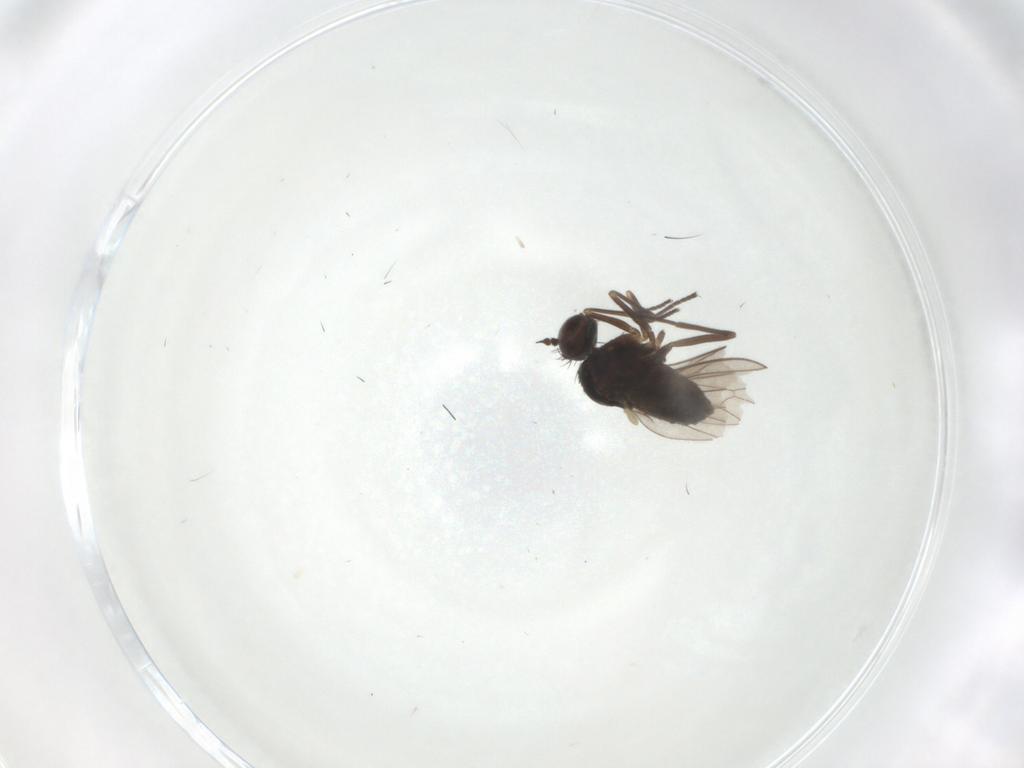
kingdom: Animalia
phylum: Arthropoda
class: Insecta
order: Diptera
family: Dolichopodidae
